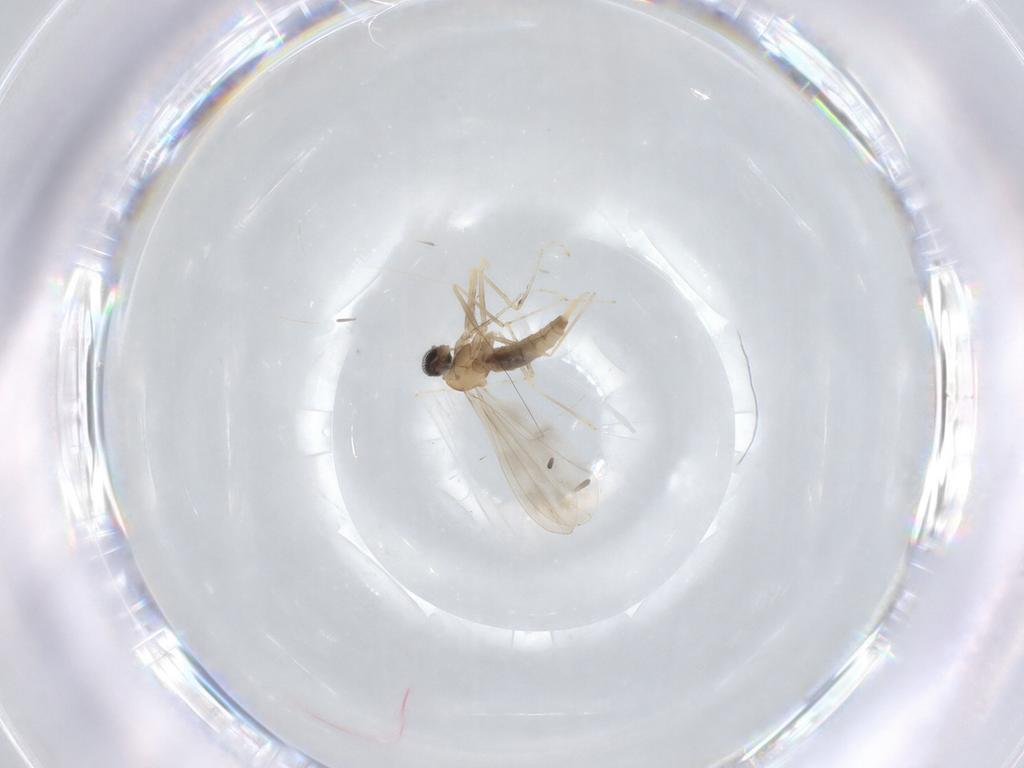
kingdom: Animalia
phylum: Arthropoda
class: Insecta
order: Diptera
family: Cecidomyiidae
